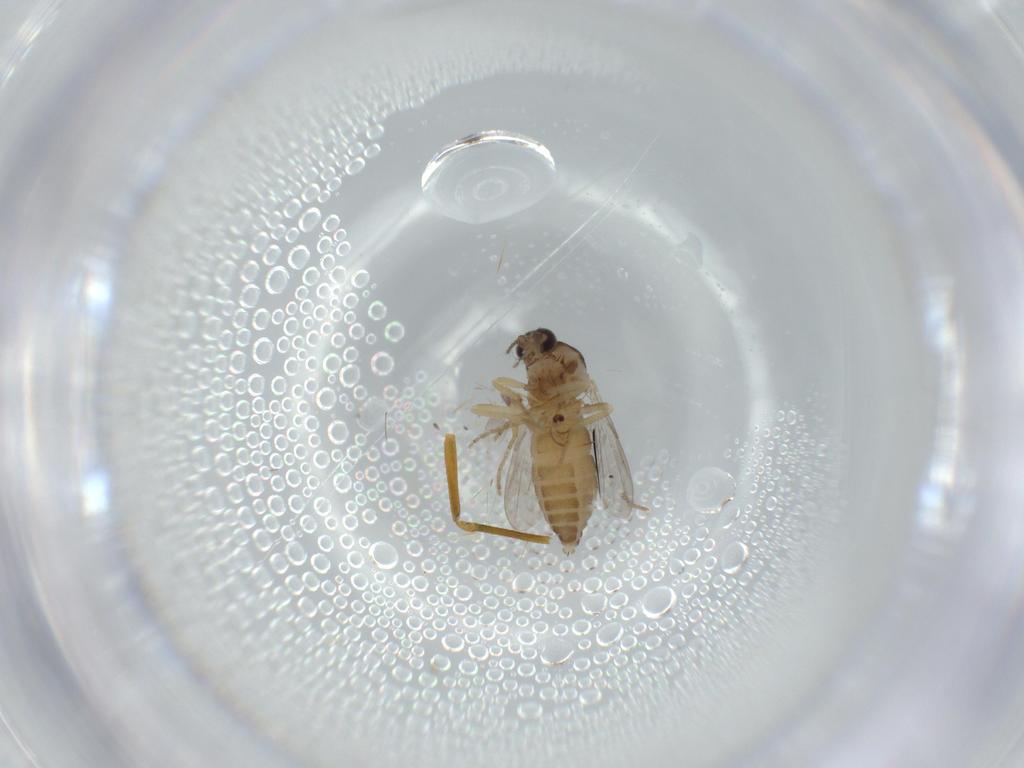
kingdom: Animalia
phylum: Arthropoda
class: Insecta
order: Diptera
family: Ceratopogonidae
